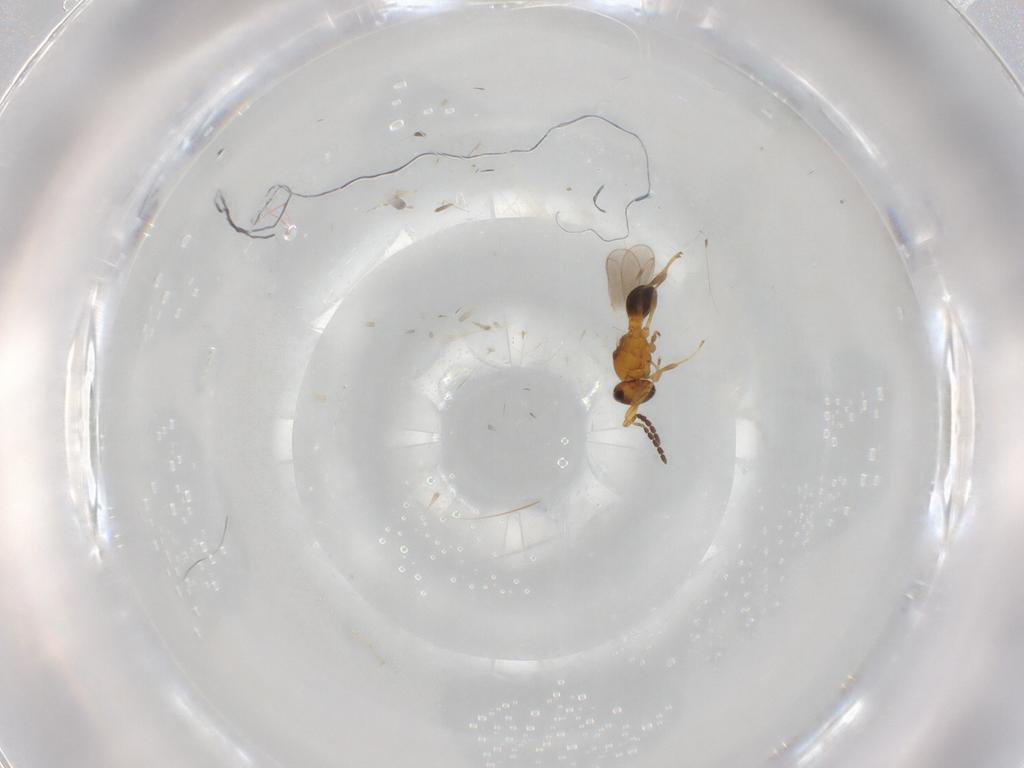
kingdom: Animalia
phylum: Arthropoda
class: Insecta
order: Hymenoptera
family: Platygastridae
